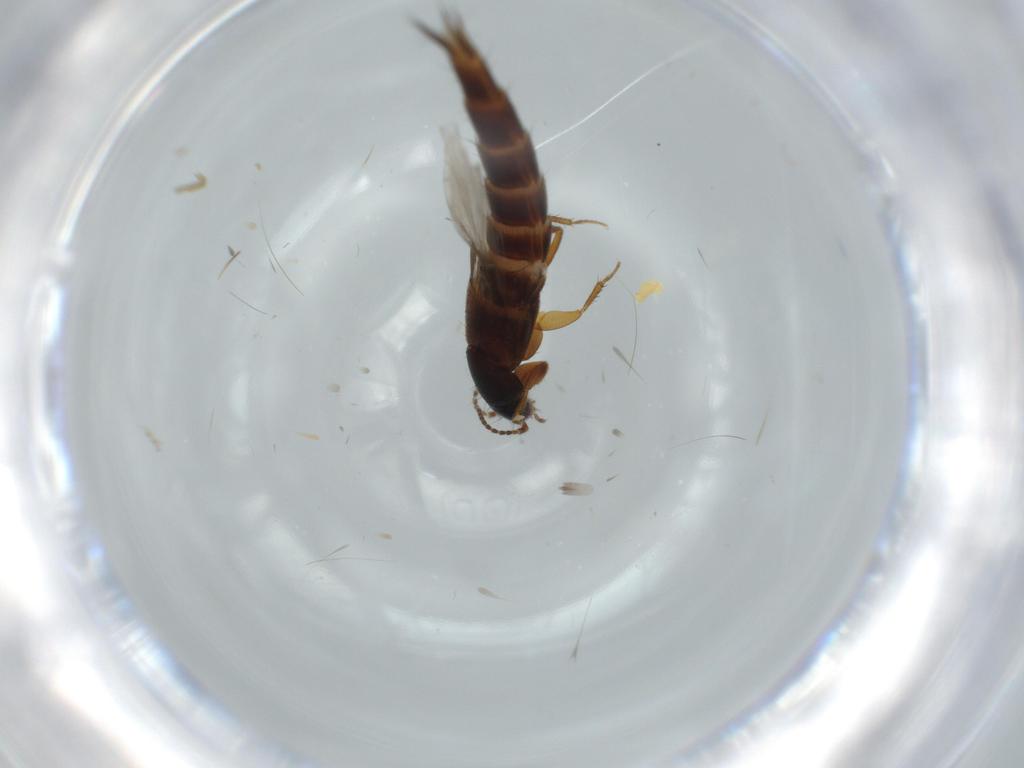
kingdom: Animalia
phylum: Arthropoda
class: Insecta
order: Coleoptera
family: Staphylinidae
